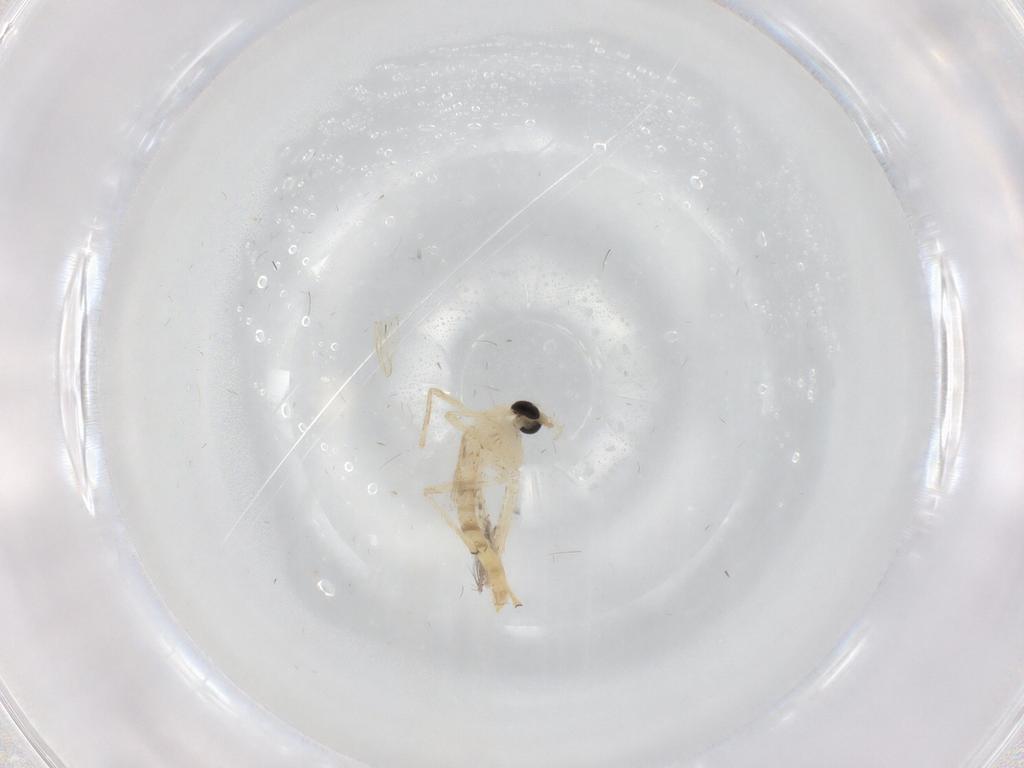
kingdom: Animalia
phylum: Arthropoda
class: Insecta
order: Diptera
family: Chironomidae
